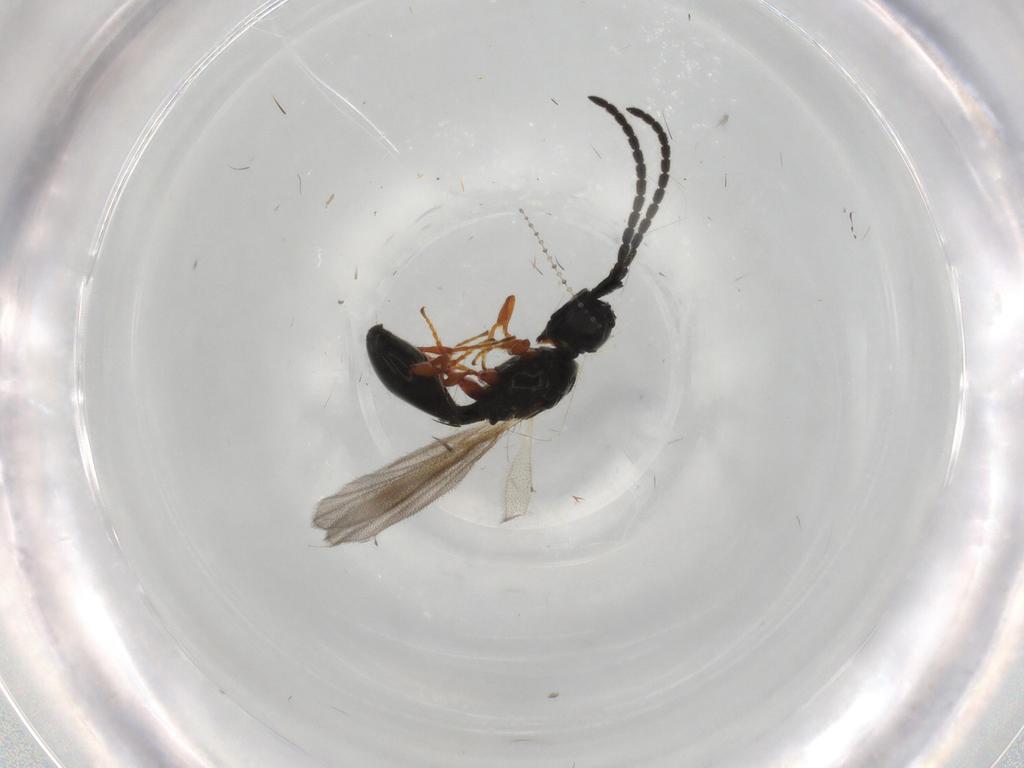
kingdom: Animalia
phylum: Arthropoda
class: Insecta
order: Hymenoptera
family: Diapriidae
